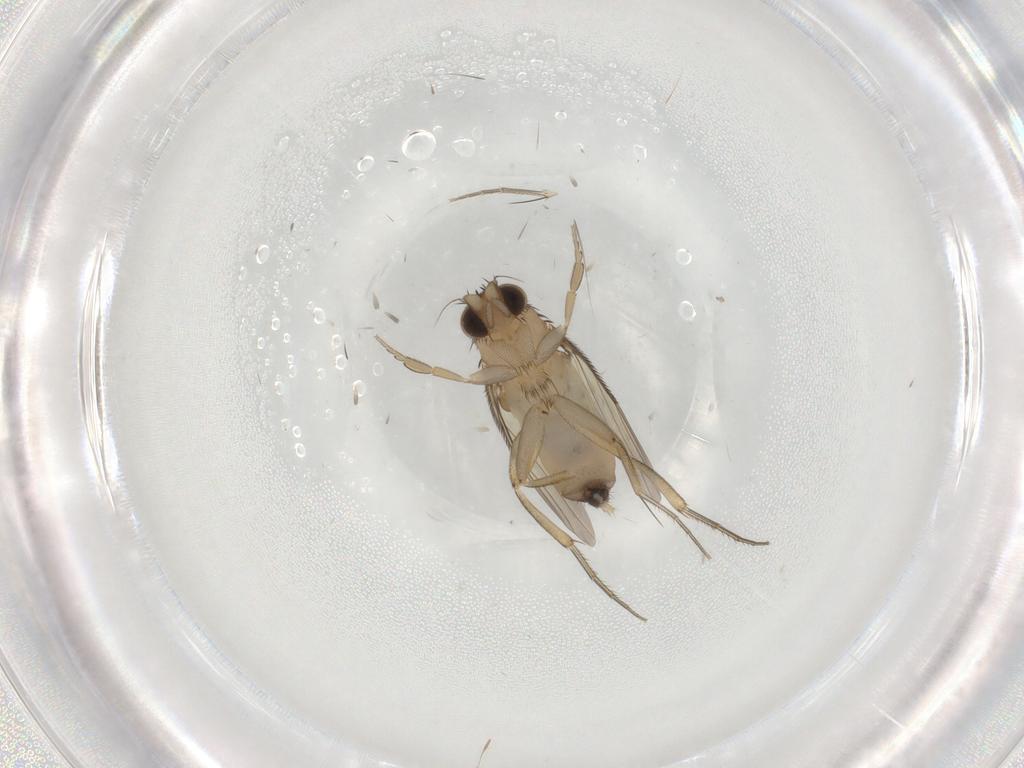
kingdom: Animalia
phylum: Arthropoda
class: Insecta
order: Diptera
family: Phoridae
